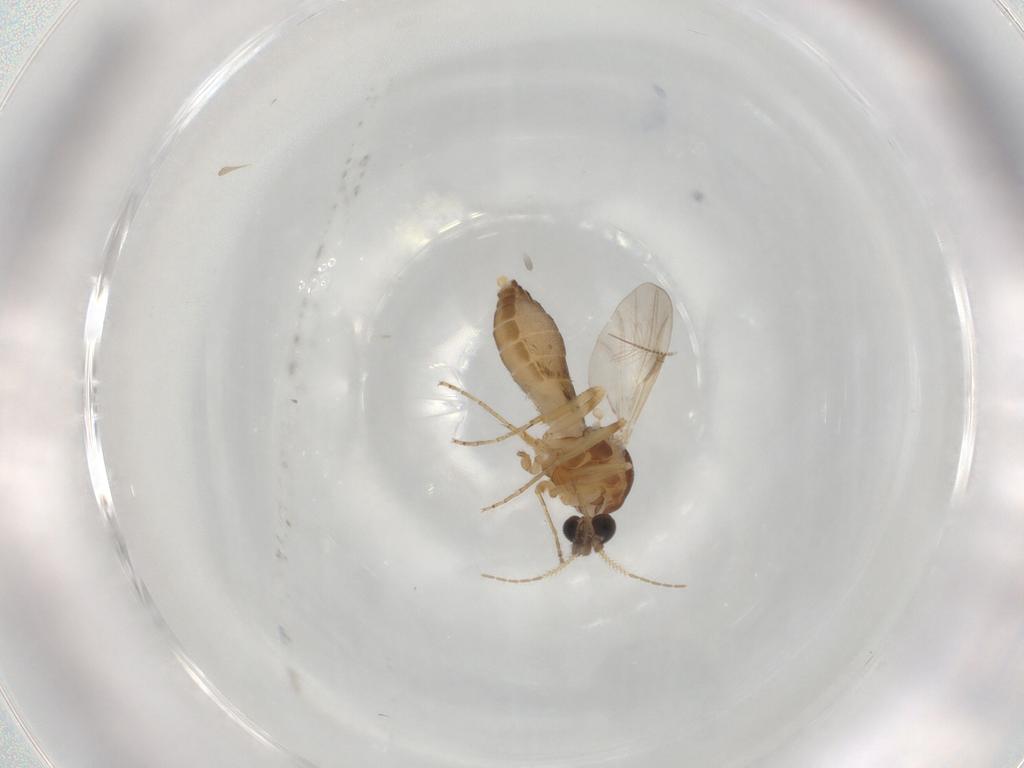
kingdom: Animalia
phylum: Arthropoda
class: Insecta
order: Diptera
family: Ceratopogonidae
